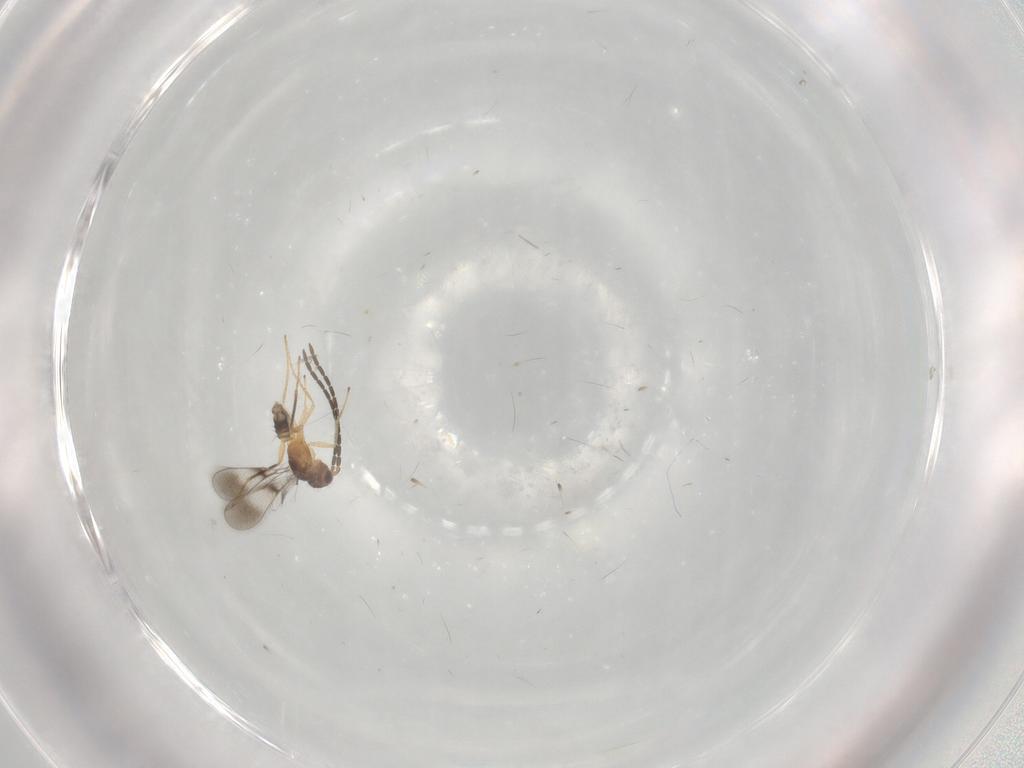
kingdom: Animalia
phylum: Arthropoda
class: Insecta
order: Hymenoptera
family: Mymaridae
